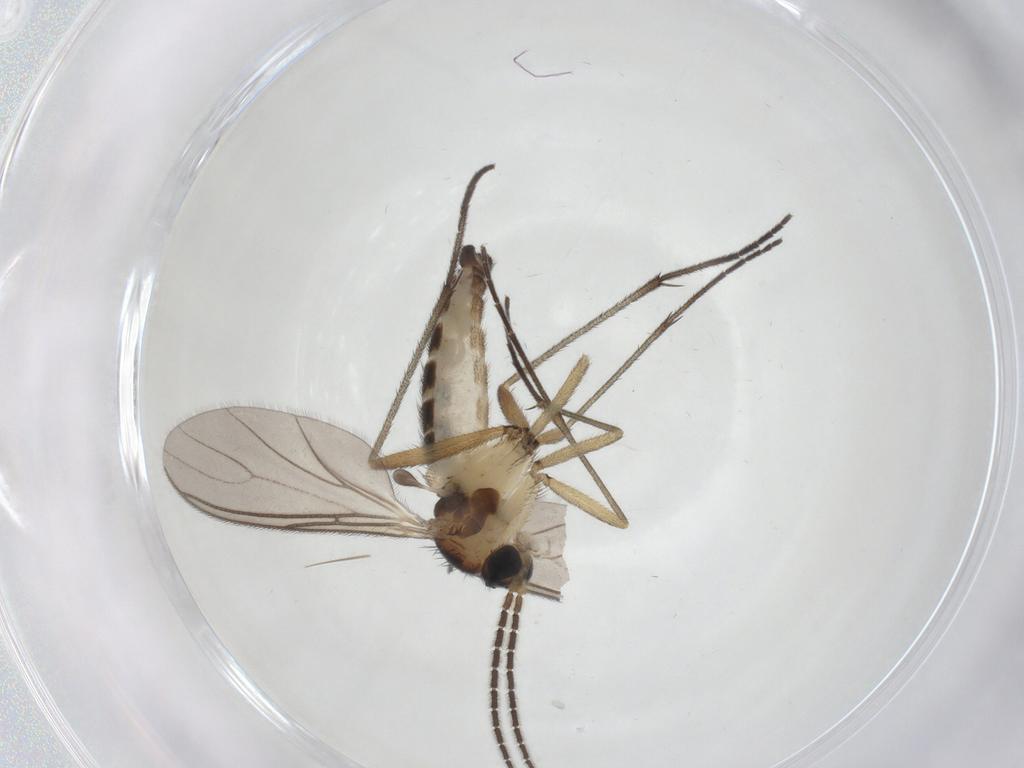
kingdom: Animalia
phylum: Arthropoda
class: Insecta
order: Diptera
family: Sciaridae
